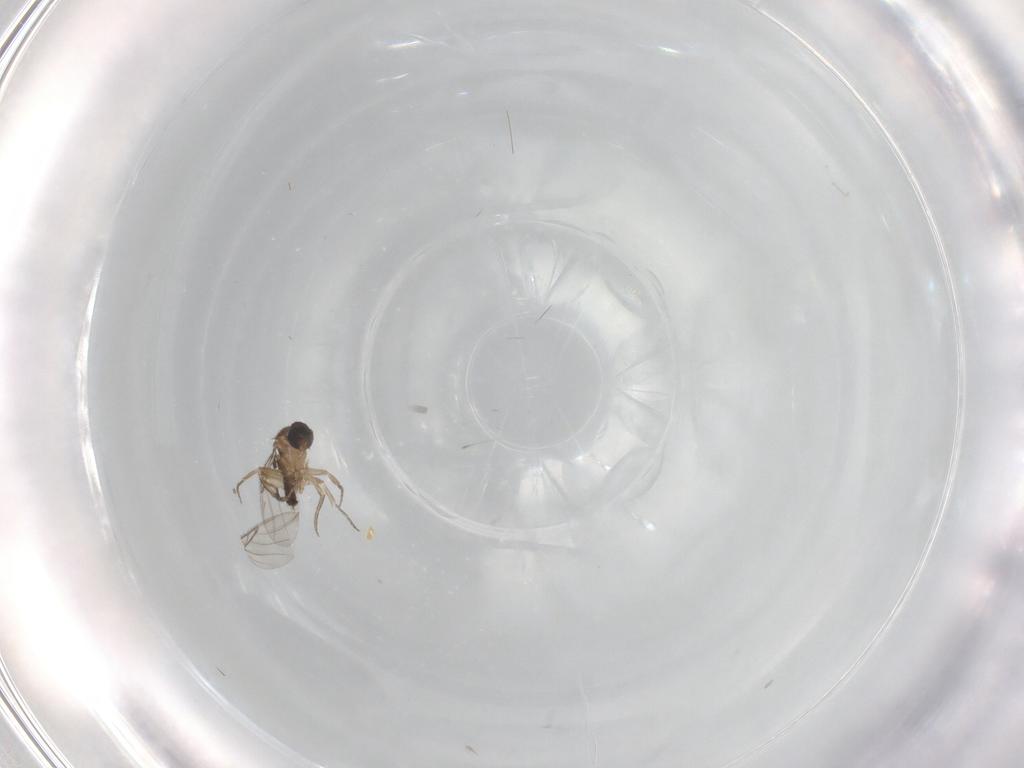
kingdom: Animalia
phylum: Arthropoda
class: Insecta
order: Diptera
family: Phoridae
